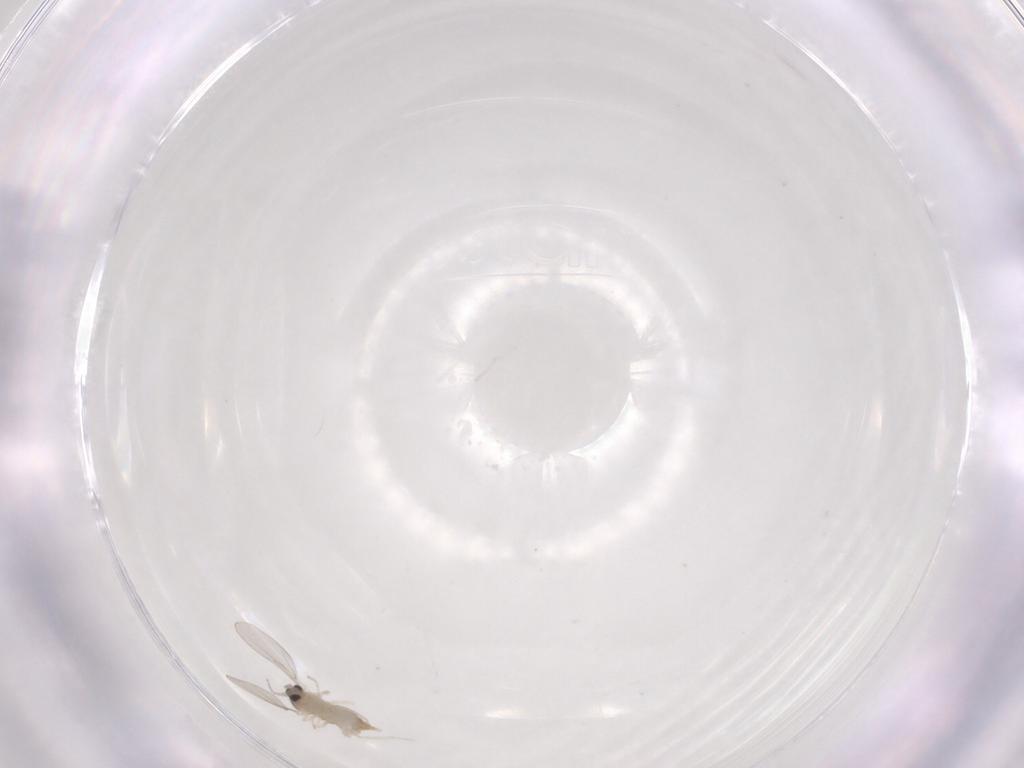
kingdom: Animalia
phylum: Arthropoda
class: Insecta
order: Diptera
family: Cecidomyiidae
